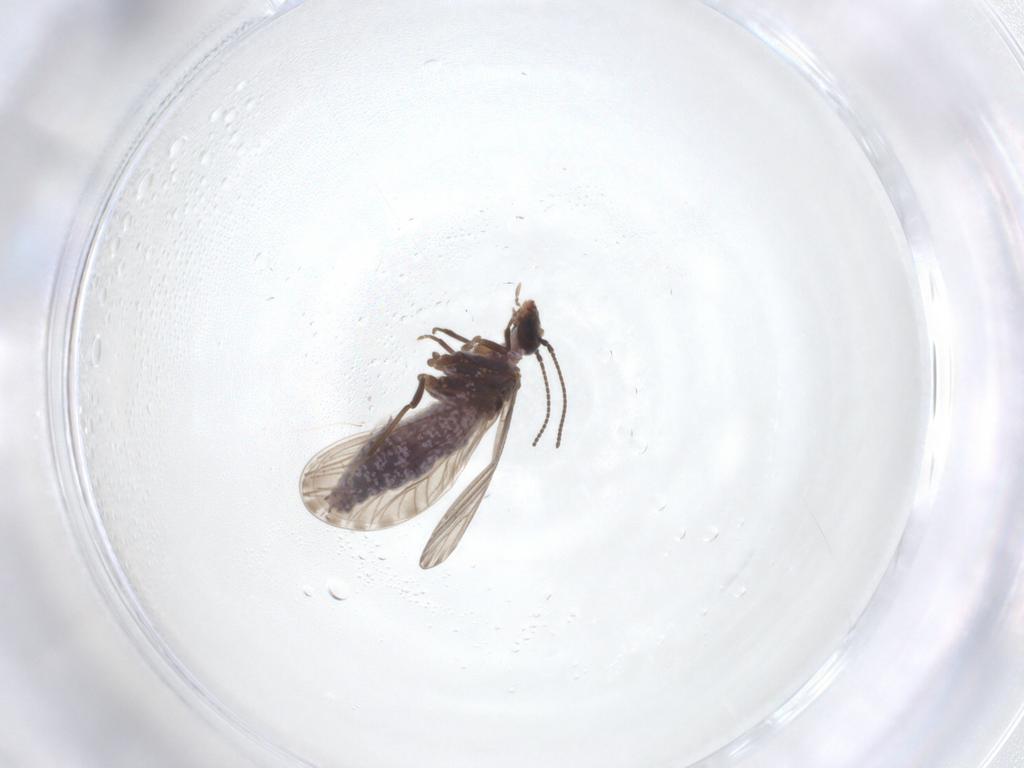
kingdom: Animalia
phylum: Arthropoda
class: Insecta
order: Neuroptera
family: Coniopterygidae
